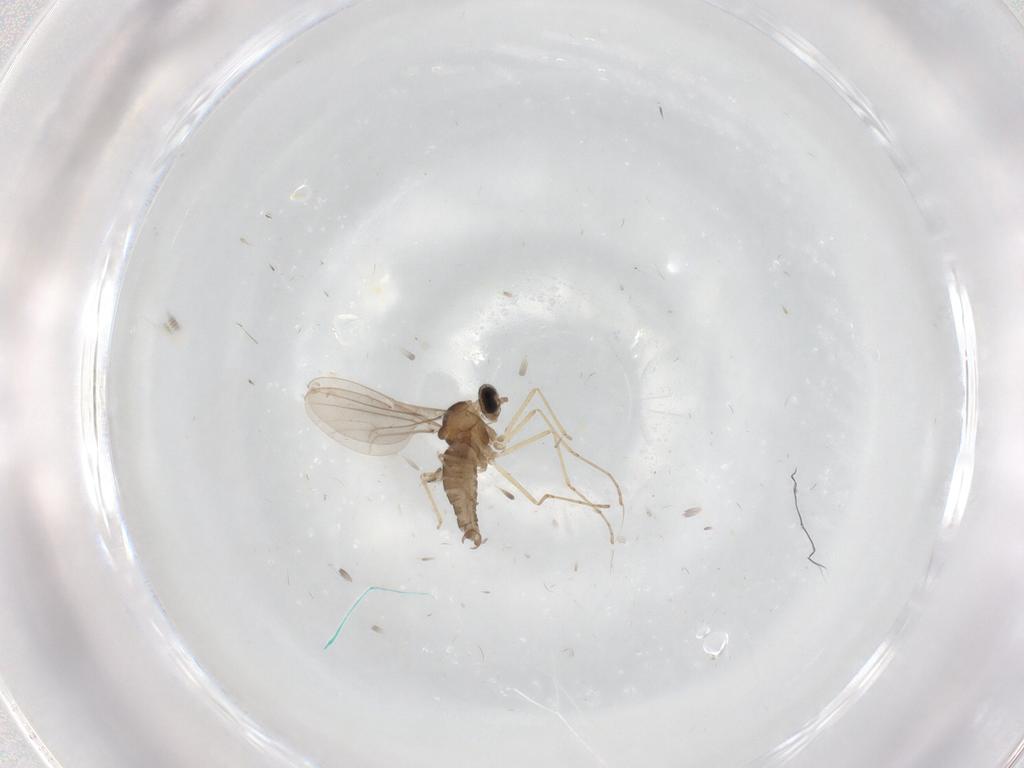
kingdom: Animalia
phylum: Arthropoda
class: Insecta
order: Diptera
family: Cecidomyiidae
